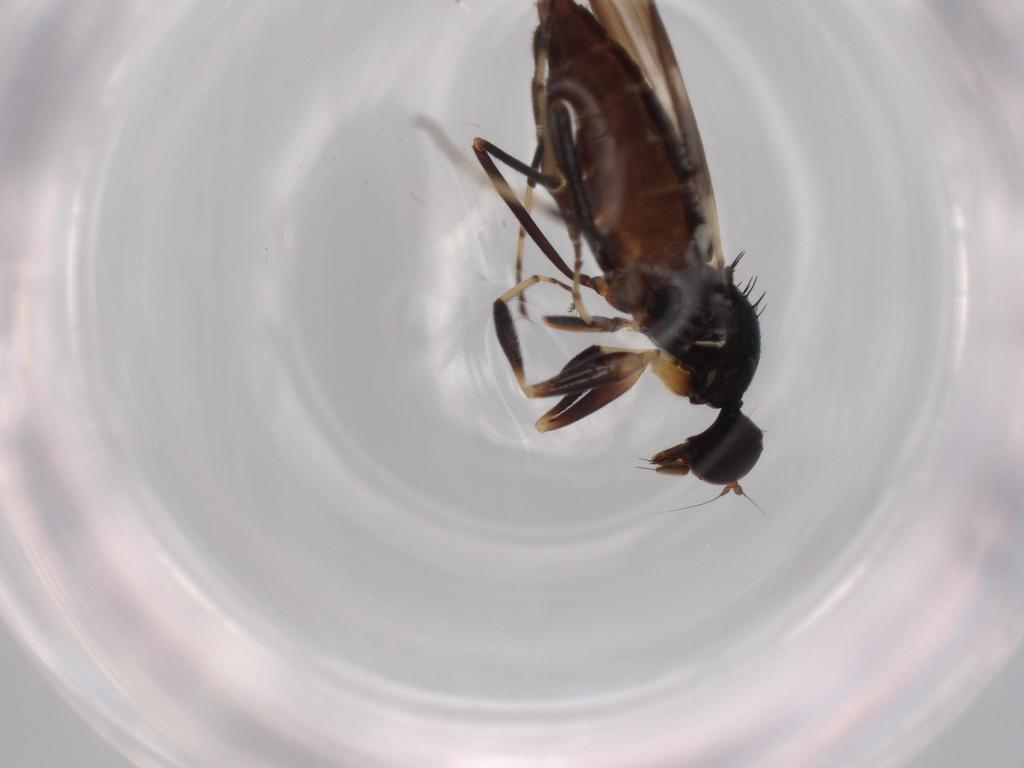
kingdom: Animalia
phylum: Arthropoda
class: Insecta
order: Diptera
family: Hybotidae
